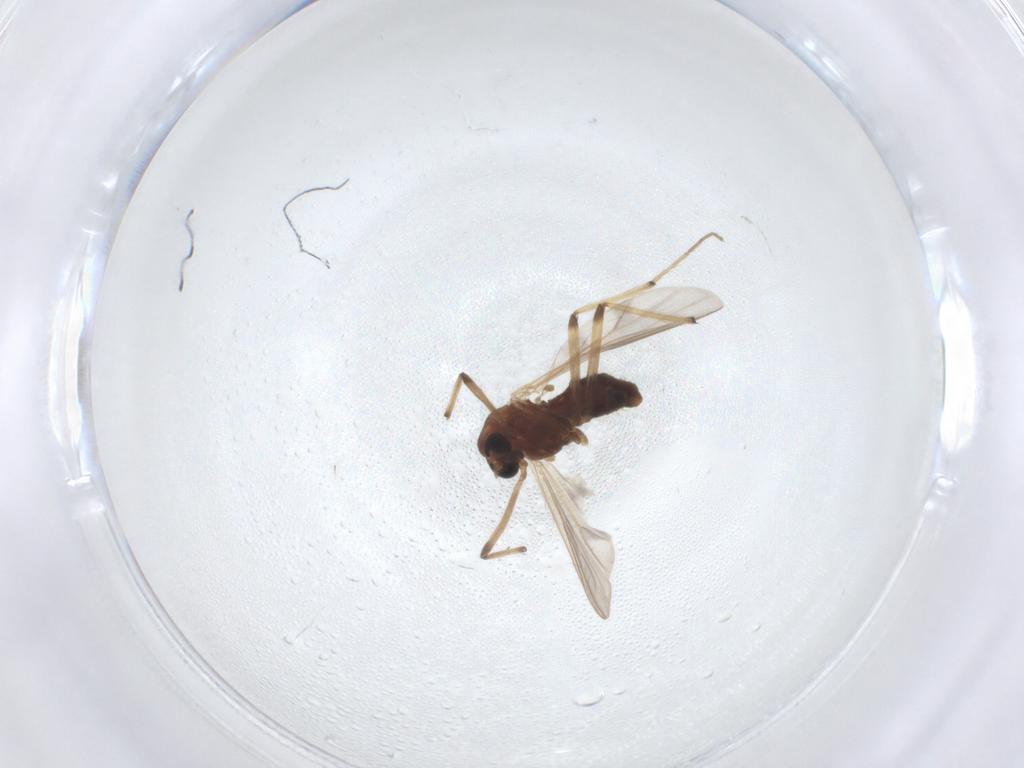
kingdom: Animalia
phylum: Arthropoda
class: Insecta
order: Diptera
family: Chironomidae
